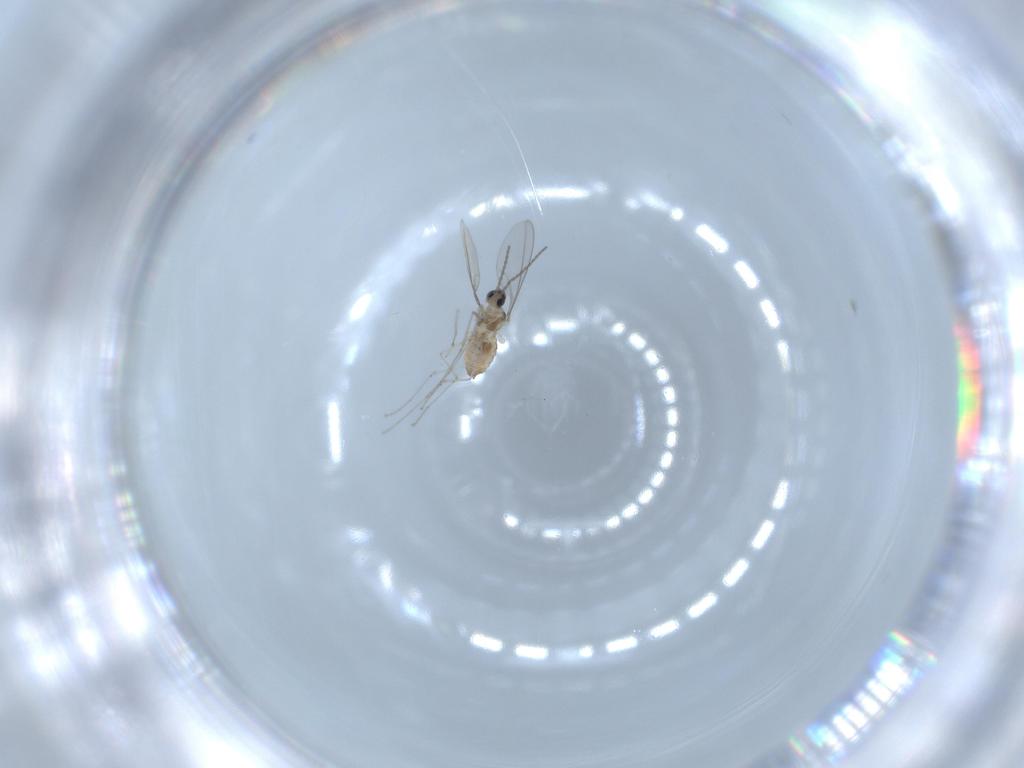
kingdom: Animalia
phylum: Arthropoda
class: Insecta
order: Diptera
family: Cecidomyiidae
